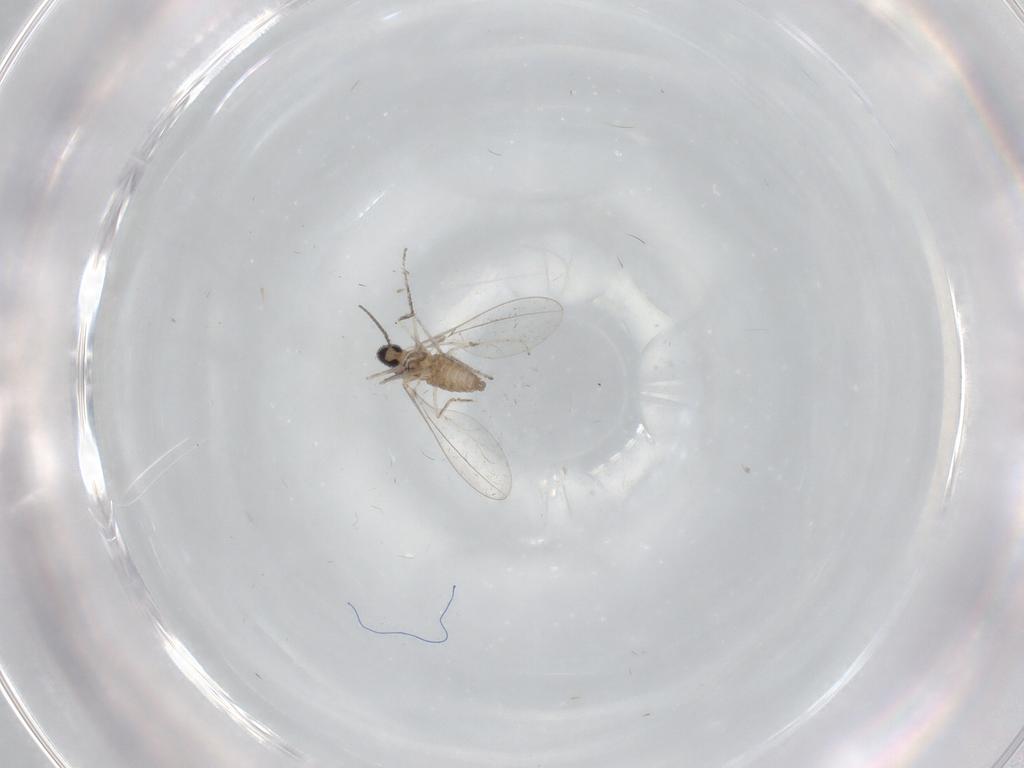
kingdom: Animalia
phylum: Arthropoda
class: Insecta
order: Diptera
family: Cecidomyiidae
